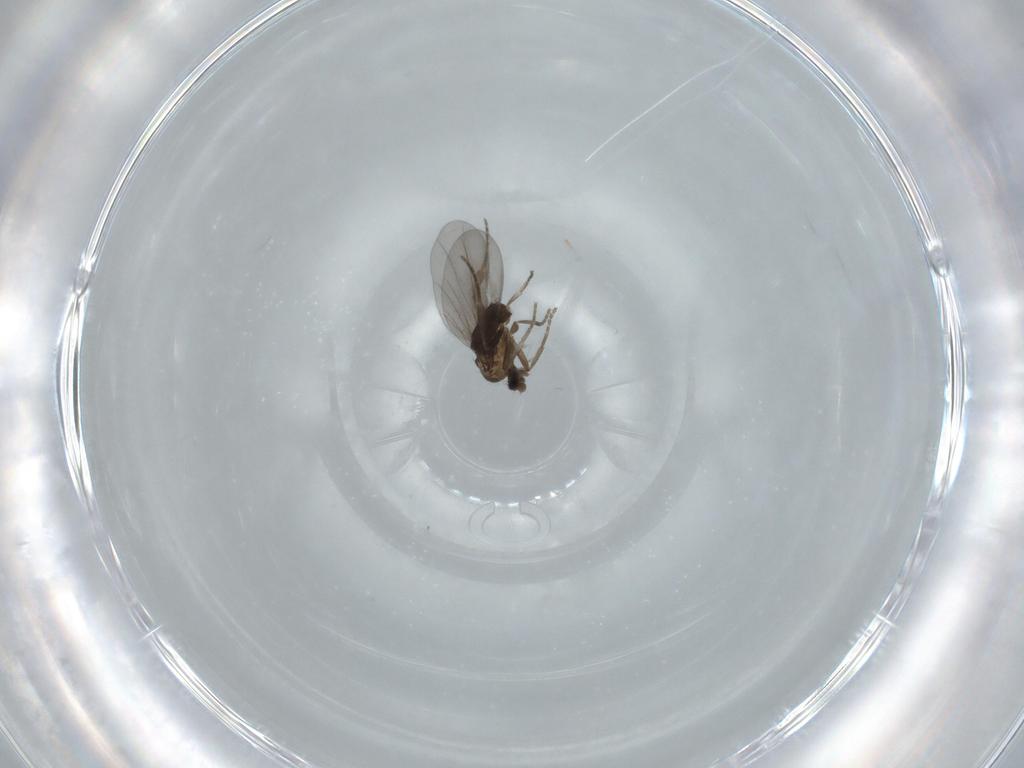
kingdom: Animalia
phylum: Arthropoda
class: Insecta
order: Diptera
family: Phoridae
